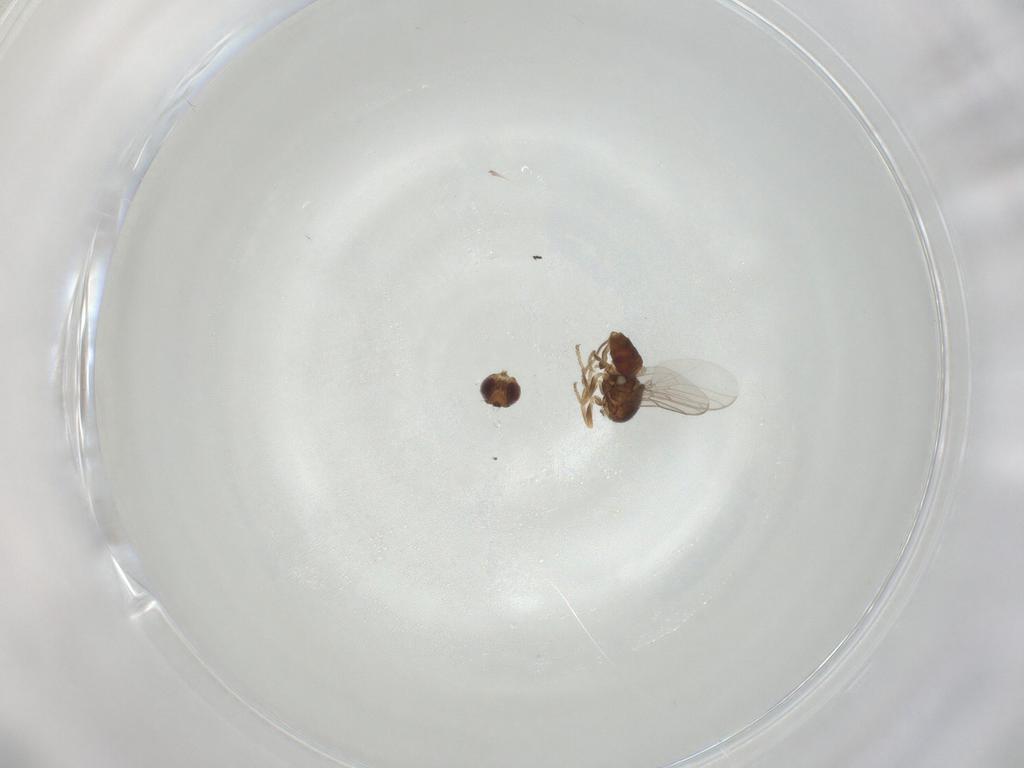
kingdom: Animalia
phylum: Arthropoda
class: Insecta
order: Diptera
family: Chloropidae
